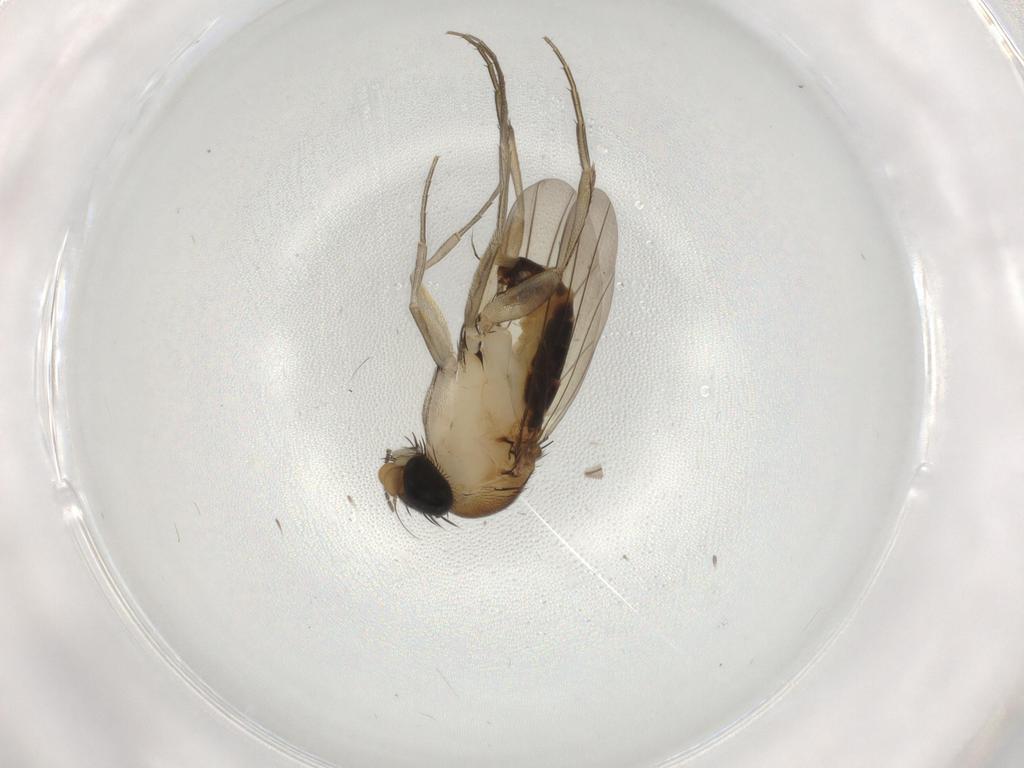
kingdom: Animalia
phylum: Arthropoda
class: Insecta
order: Diptera
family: Phoridae
